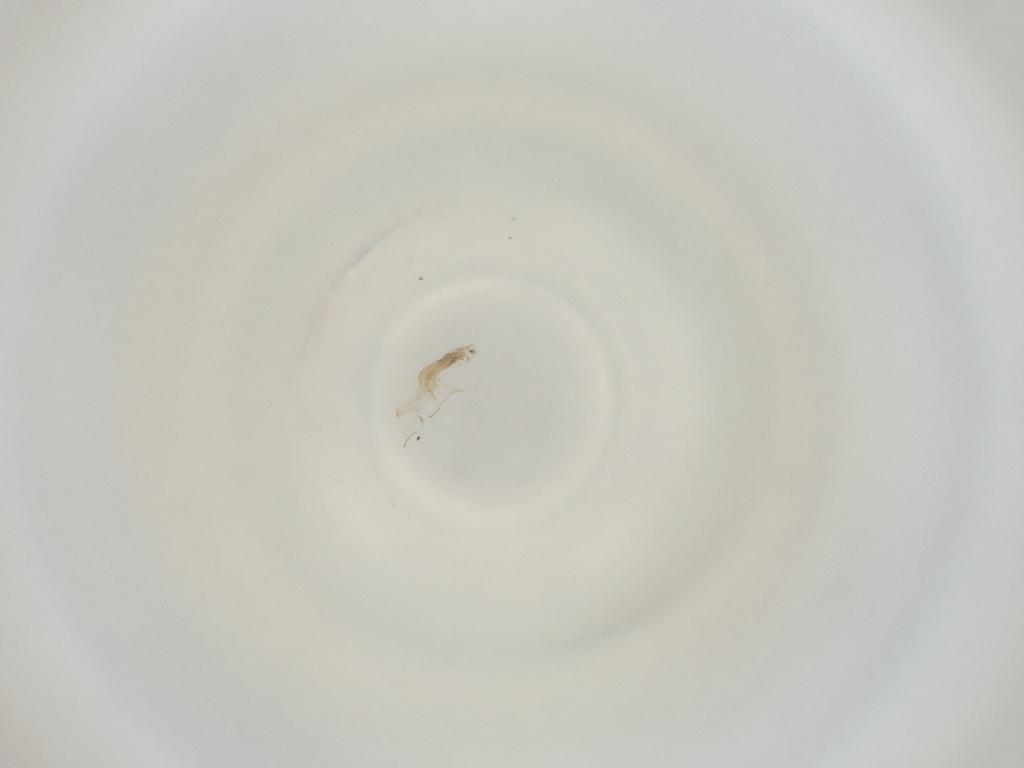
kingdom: Animalia
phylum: Arthropoda
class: Insecta
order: Diptera
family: Cecidomyiidae
